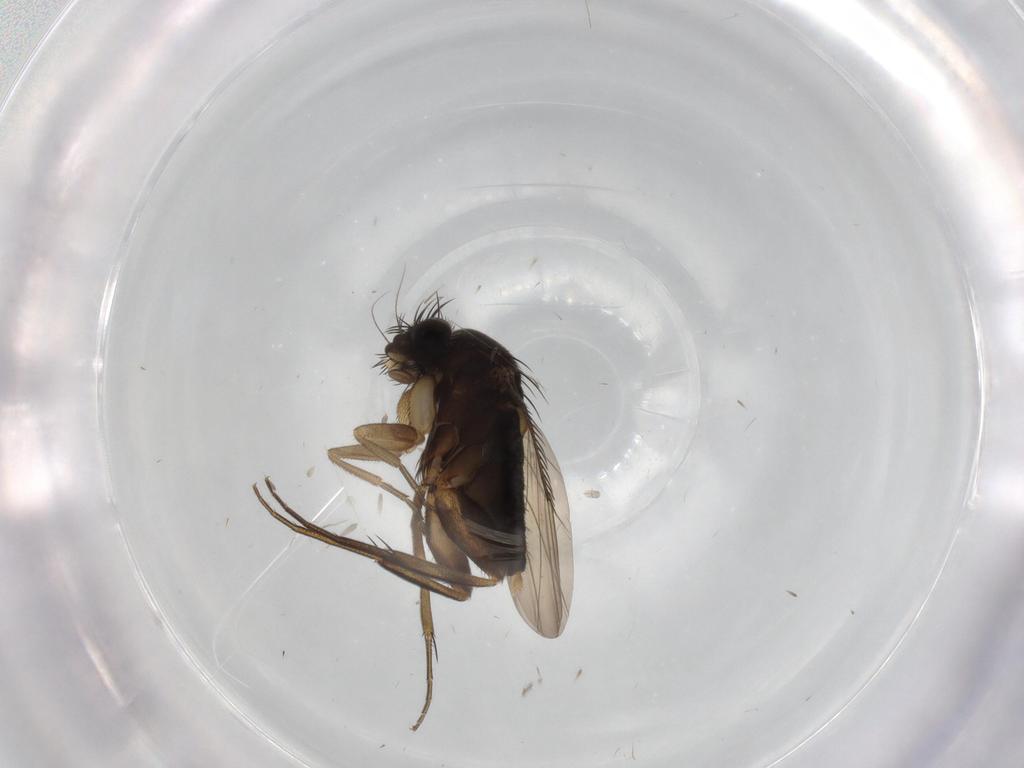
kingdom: Animalia
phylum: Arthropoda
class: Insecta
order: Diptera
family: Phoridae
